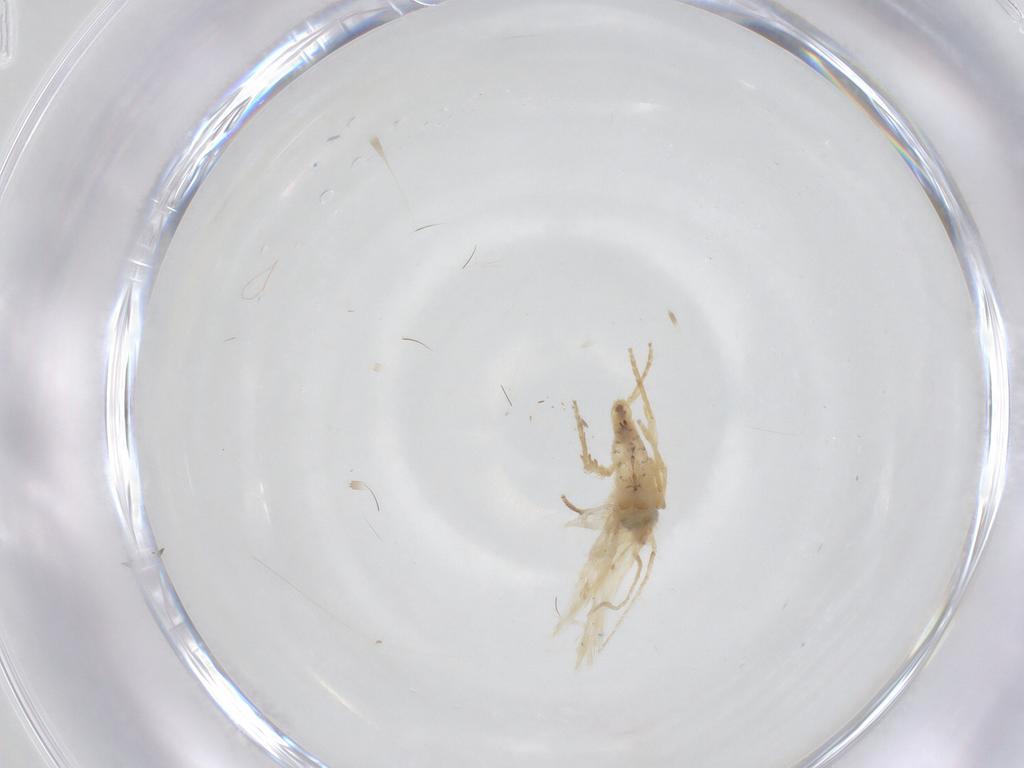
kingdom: Animalia
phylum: Arthropoda
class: Insecta
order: Lepidoptera
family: Nepticulidae
